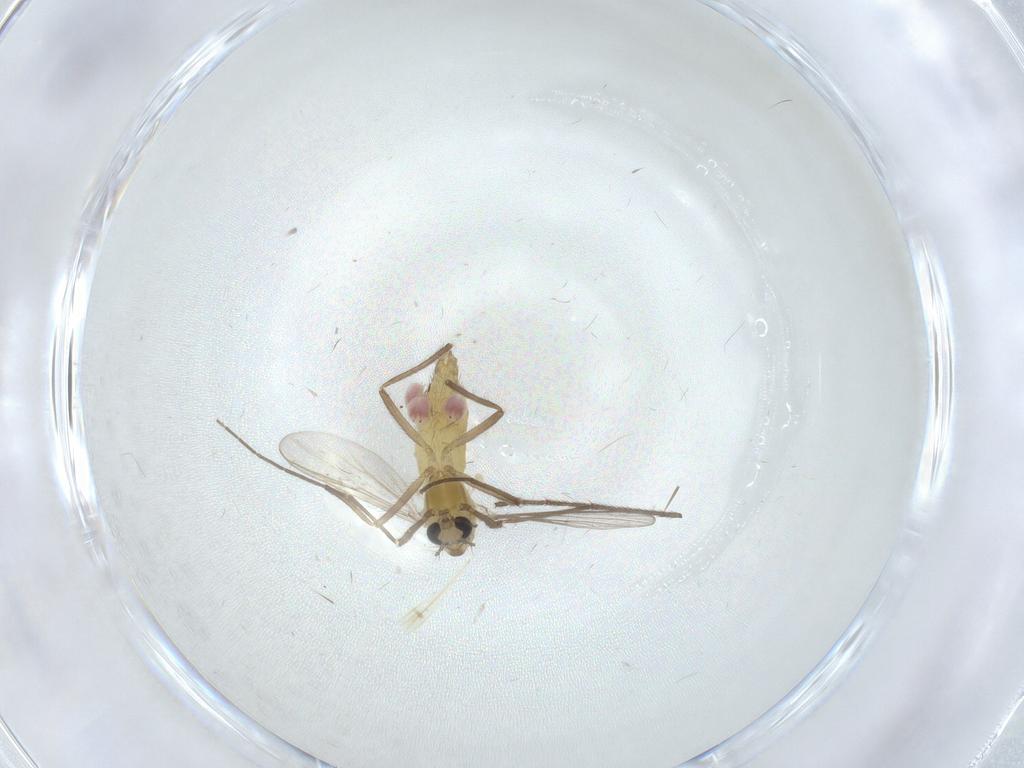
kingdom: Animalia
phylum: Arthropoda
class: Insecta
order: Diptera
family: Chironomidae
